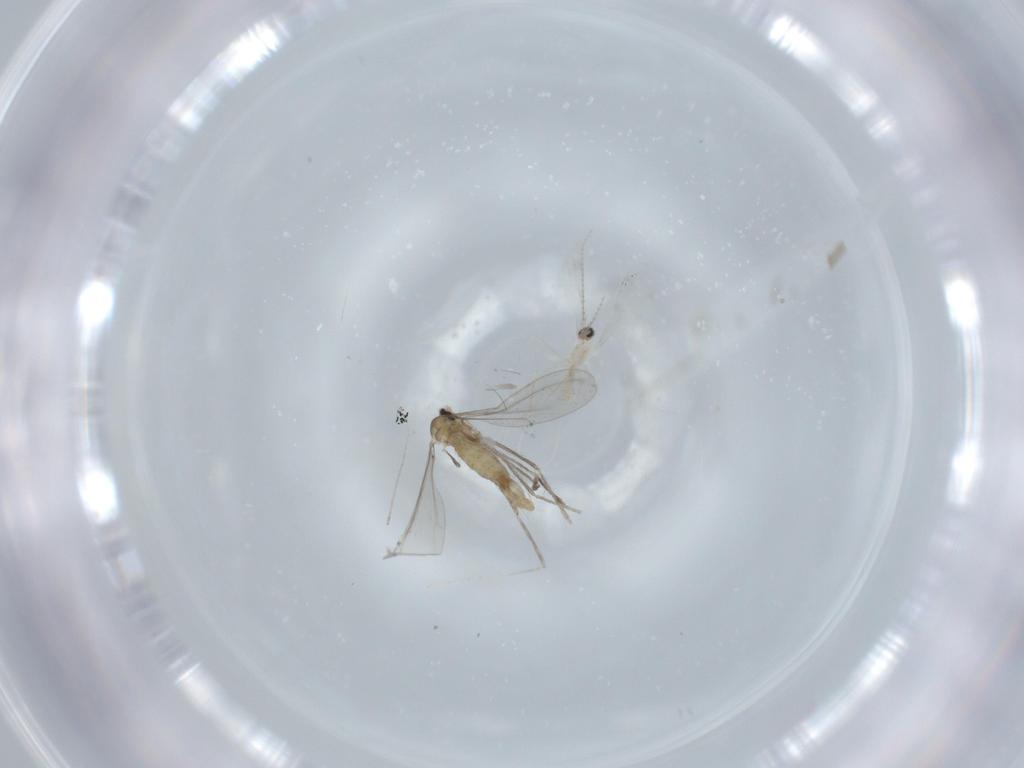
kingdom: Animalia
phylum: Arthropoda
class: Insecta
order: Diptera
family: Cecidomyiidae
